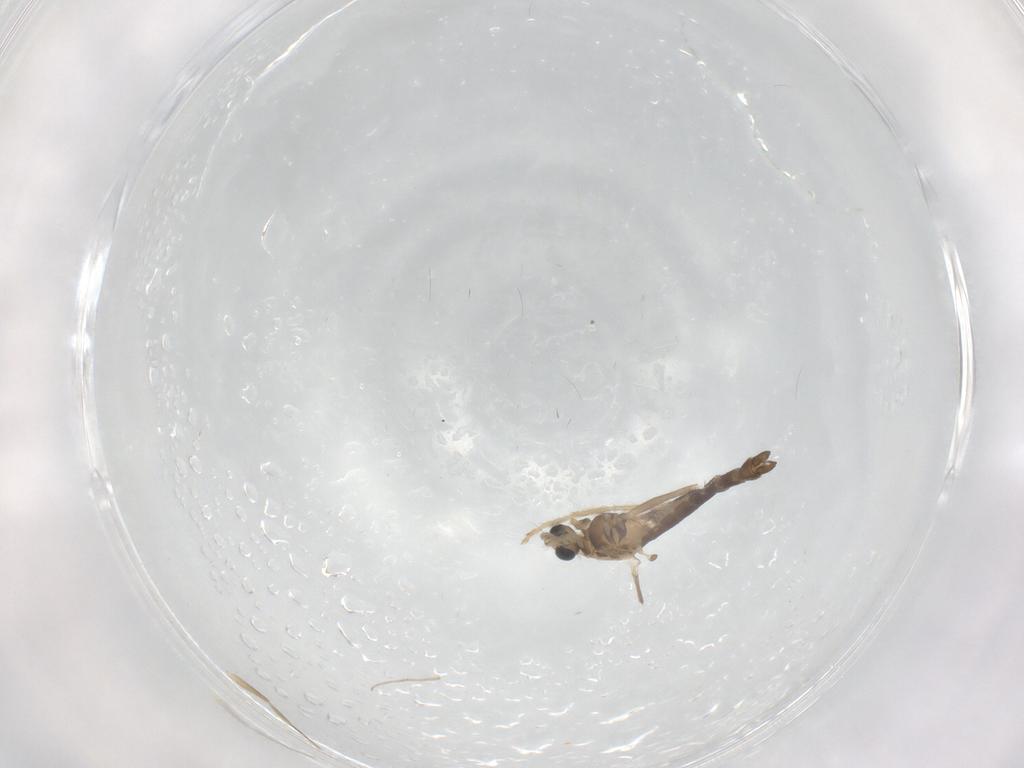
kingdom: Animalia
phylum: Arthropoda
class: Insecta
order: Diptera
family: Chironomidae
